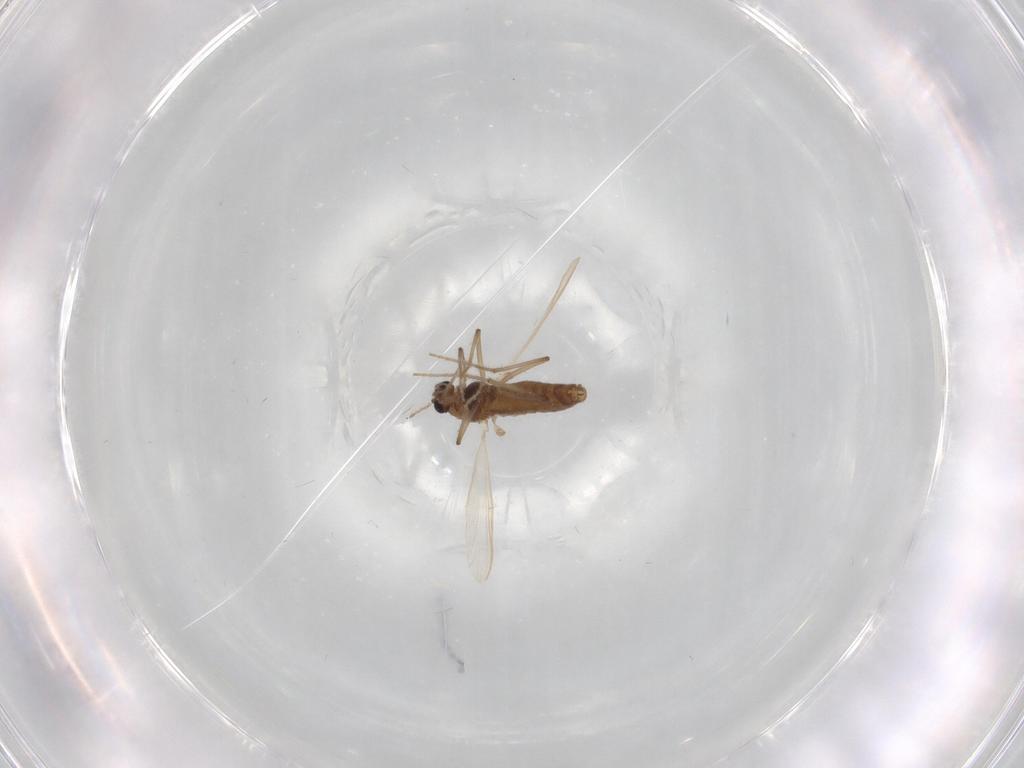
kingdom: Animalia
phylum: Arthropoda
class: Insecta
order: Diptera
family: Chironomidae
